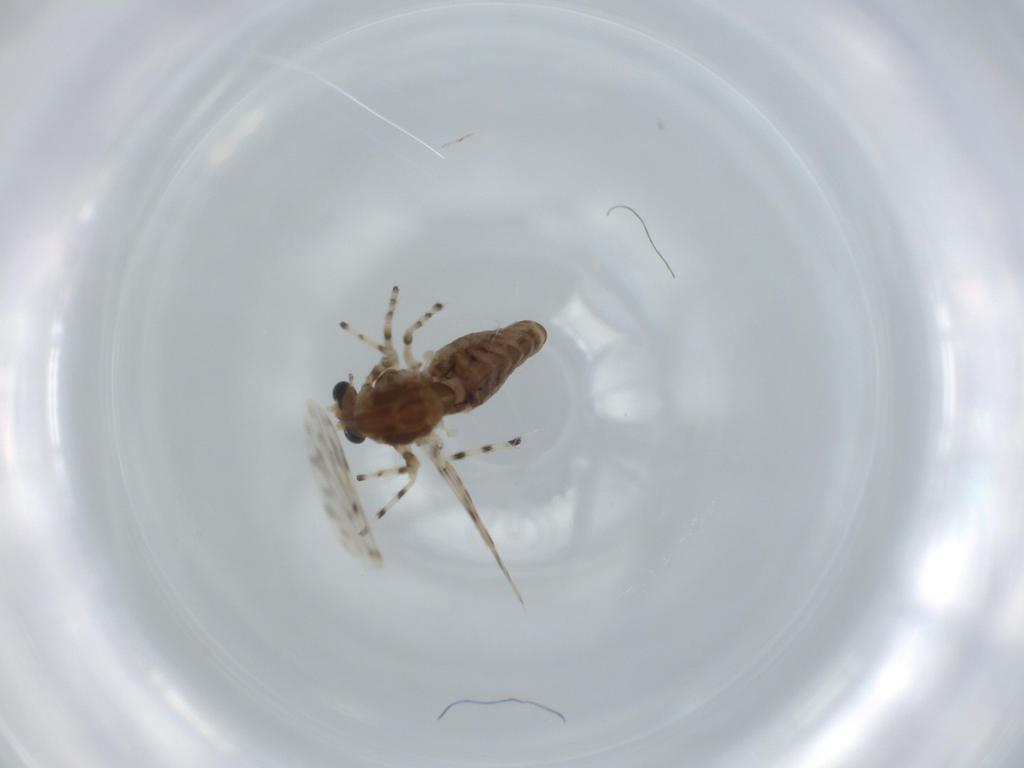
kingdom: Animalia
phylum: Arthropoda
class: Insecta
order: Diptera
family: Chironomidae
